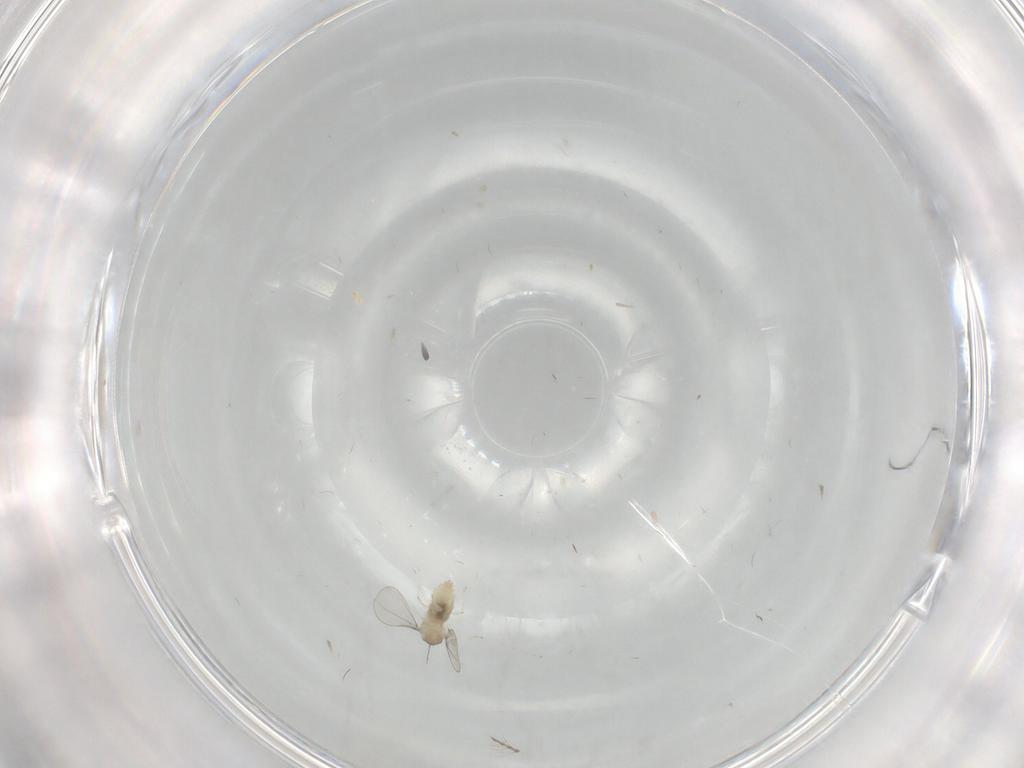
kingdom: Animalia
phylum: Arthropoda
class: Insecta
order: Diptera
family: Cecidomyiidae
